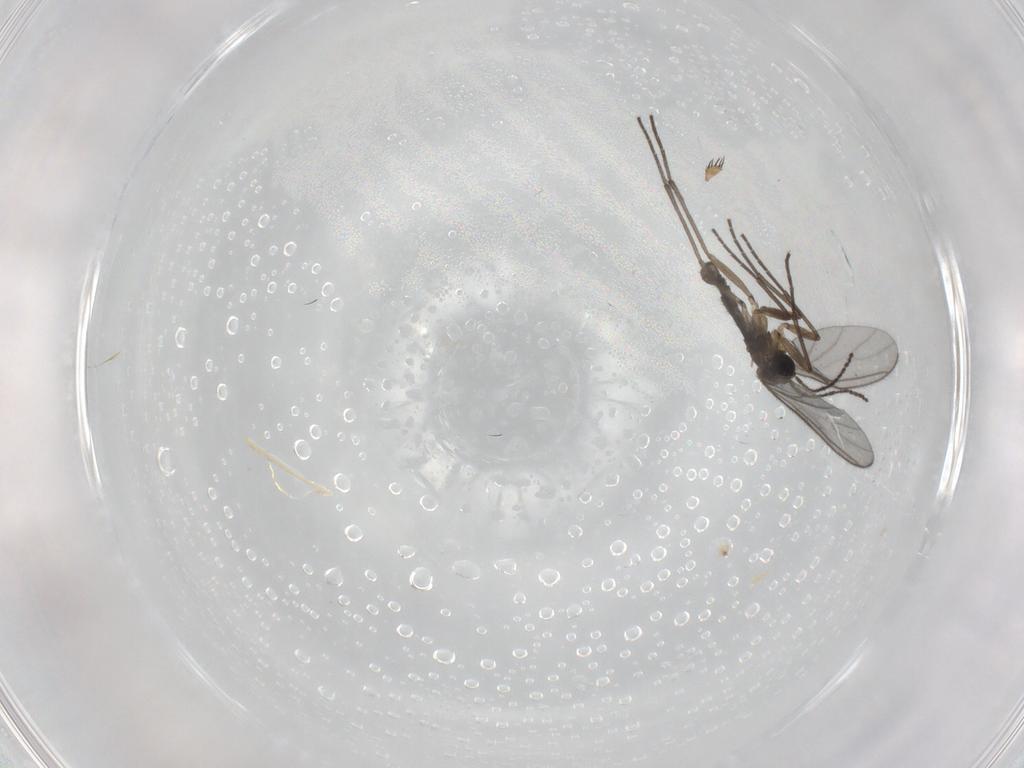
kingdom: Animalia
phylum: Arthropoda
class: Insecta
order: Diptera
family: Sciaridae
